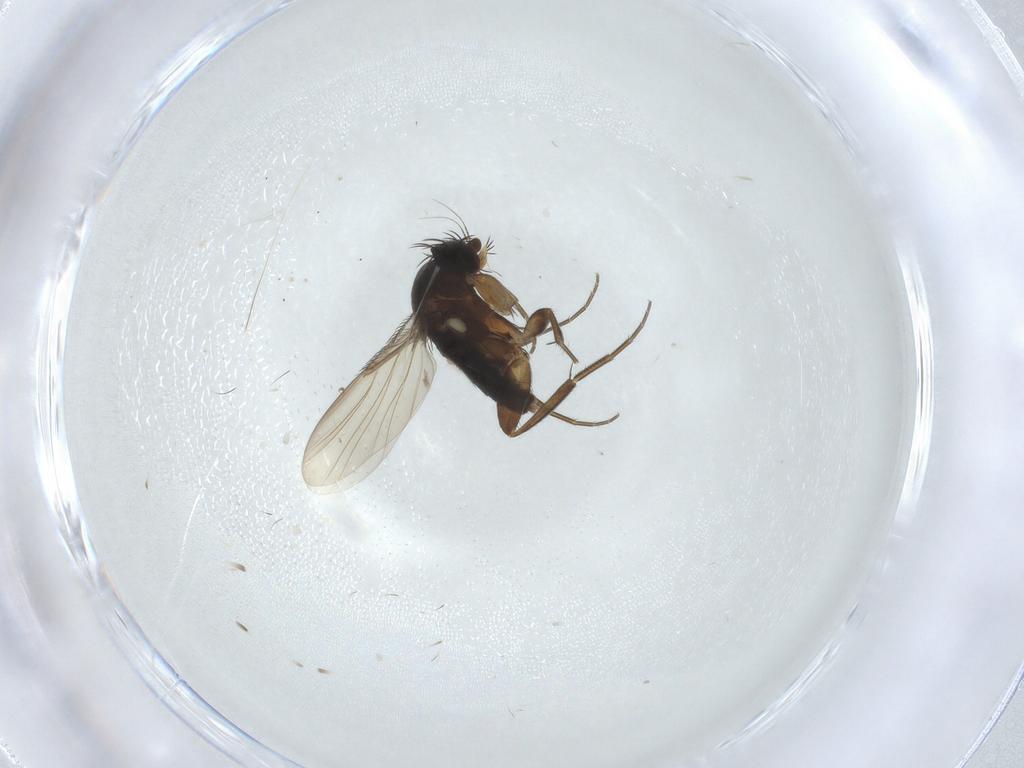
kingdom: Animalia
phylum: Arthropoda
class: Insecta
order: Diptera
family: Phoridae
